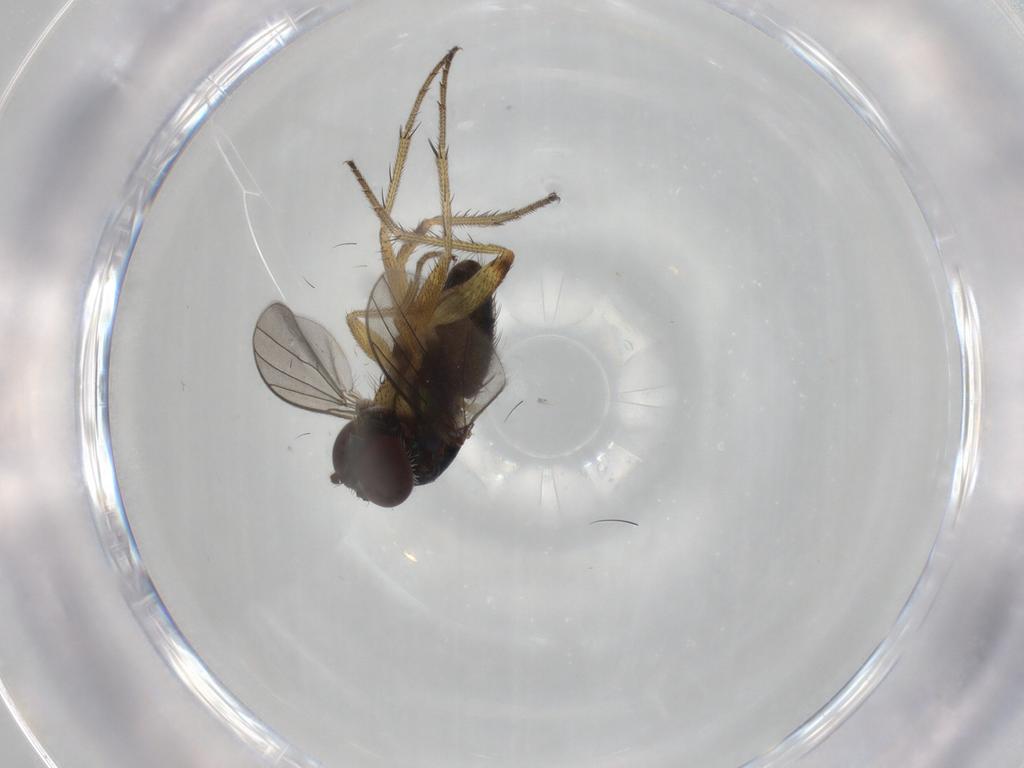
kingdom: Animalia
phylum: Arthropoda
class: Insecta
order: Diptera
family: Dolichopodidae
